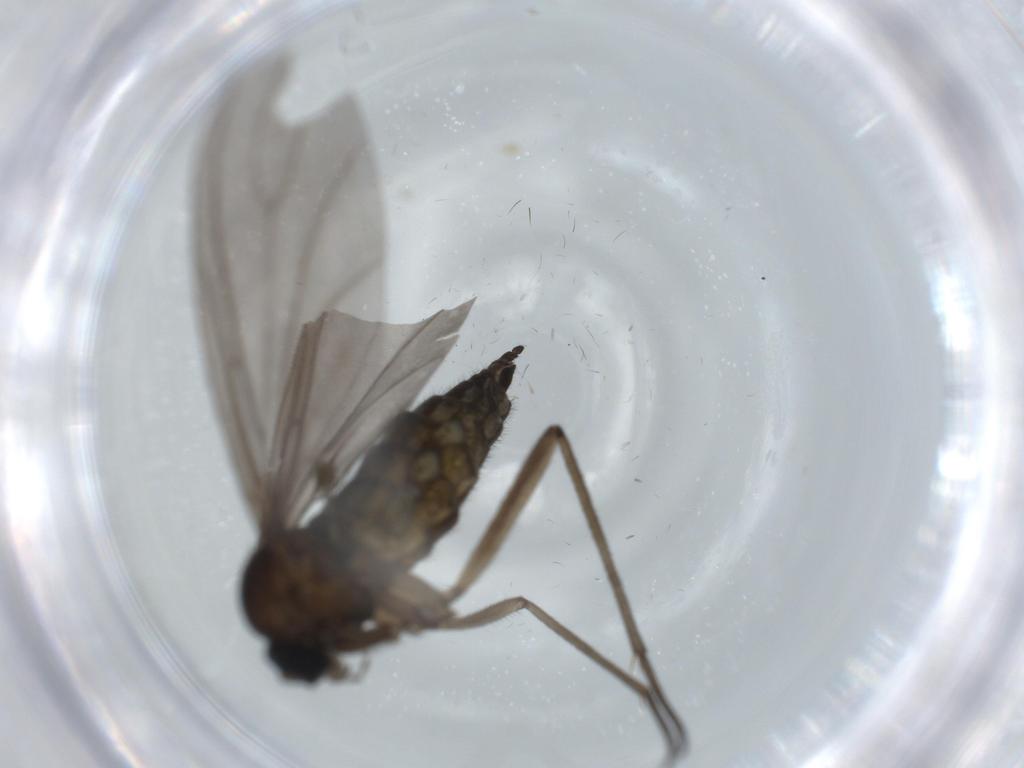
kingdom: Animalia
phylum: Arthropoda
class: Insecta
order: Diptera
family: Sciaridae
